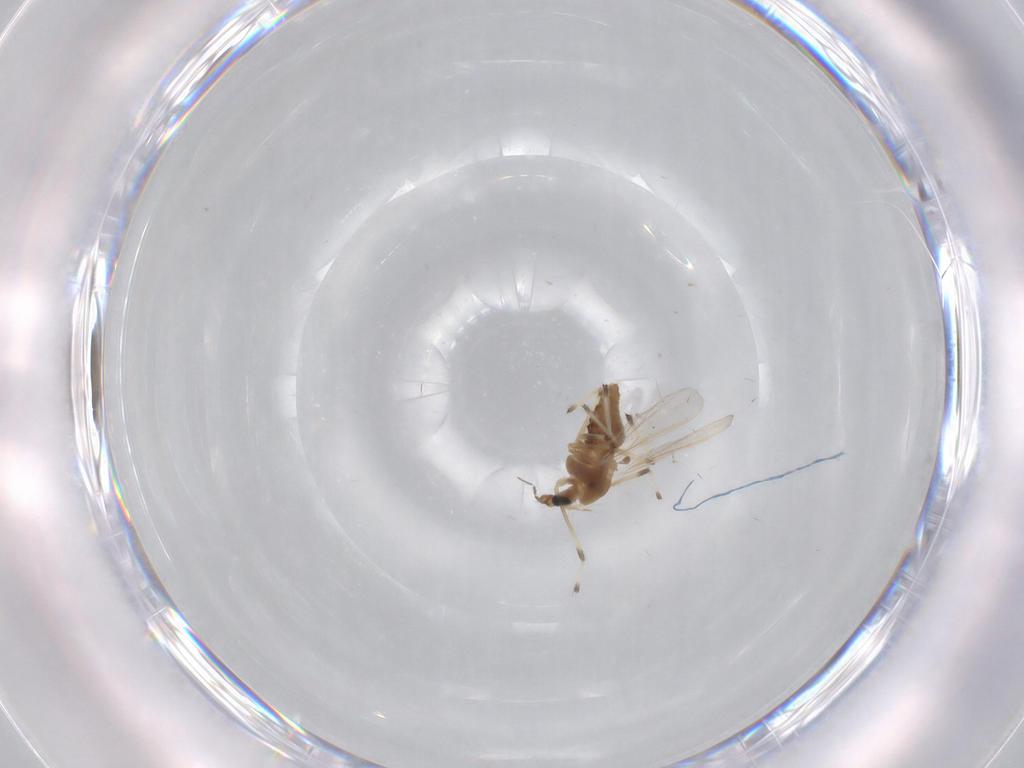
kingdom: Animalia
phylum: Arthropoda
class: Insecta
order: Diptera
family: Chironomidae
